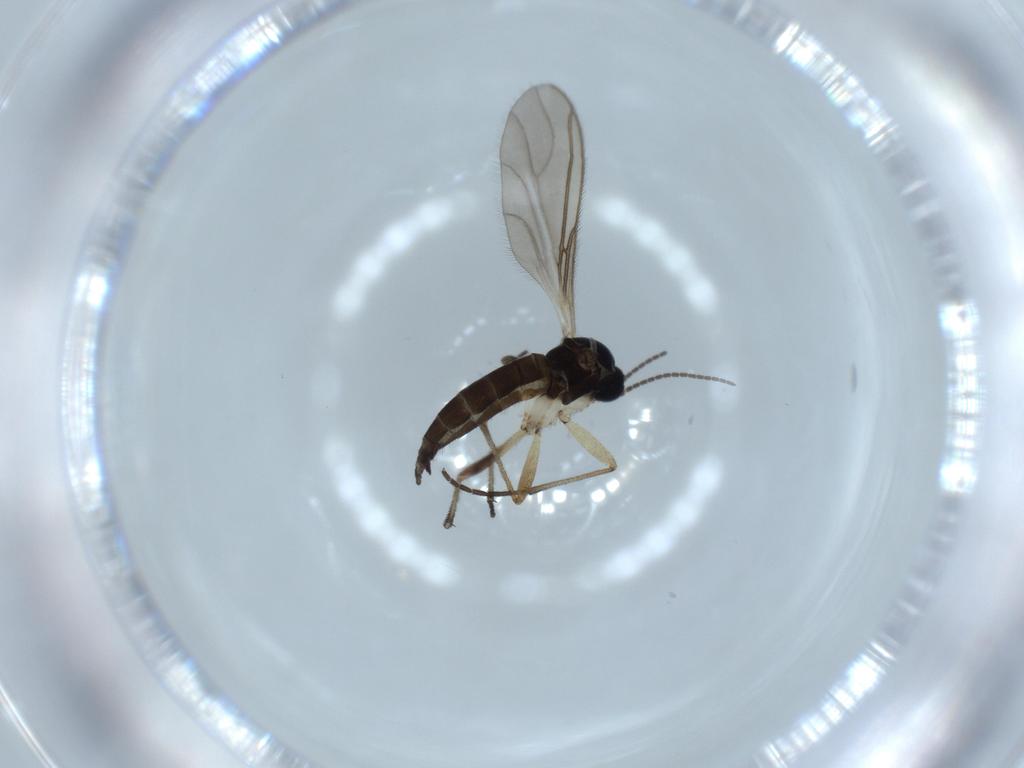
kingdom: Animalia
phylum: Arthropoda
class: Insecta
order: Diptera
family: Sciaridae
